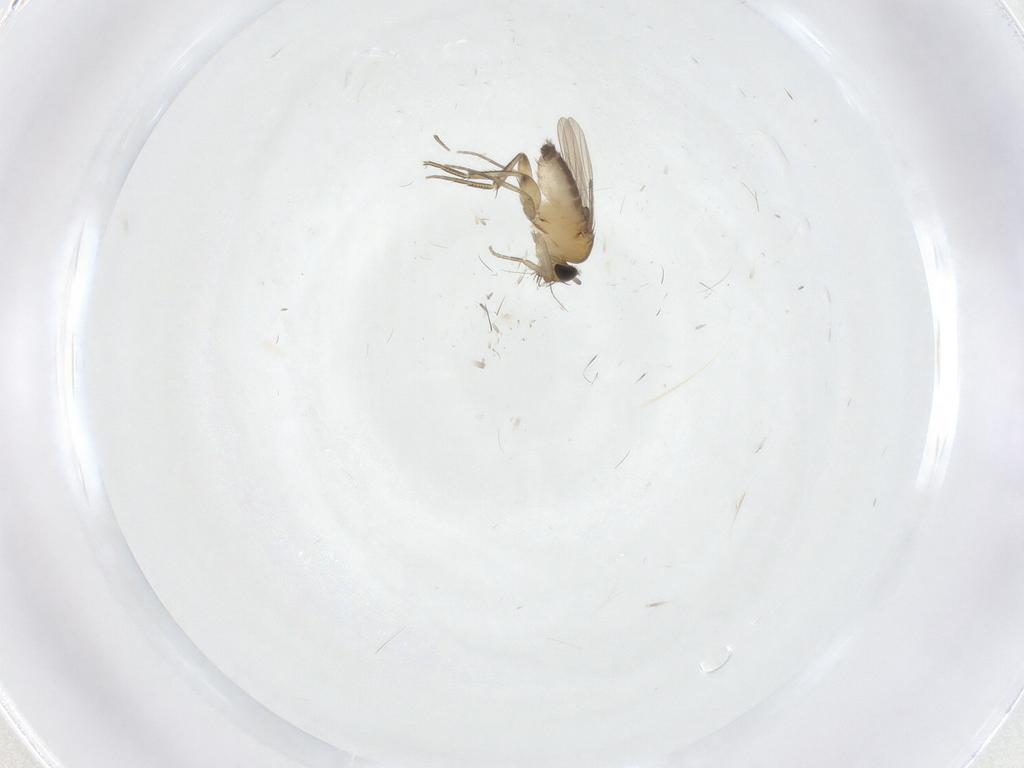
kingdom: Animalia
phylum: Arthropoda
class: Insecta
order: Diptera
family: Phoridae
